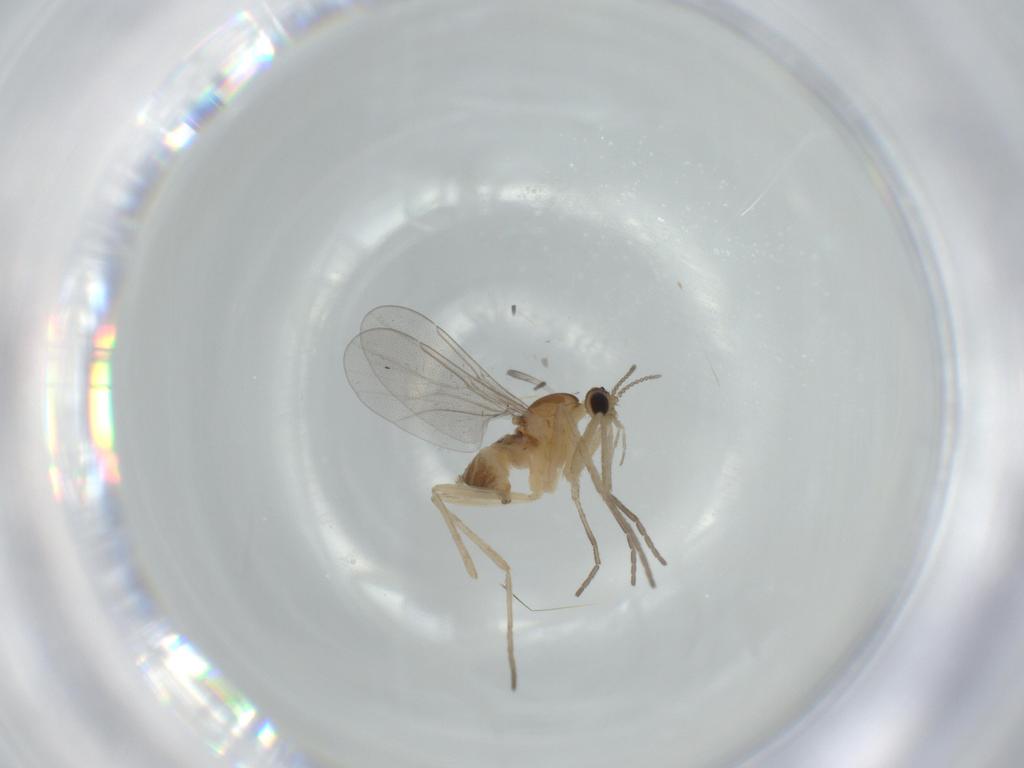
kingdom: Animalia
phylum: Arthropoda
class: Insecta
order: Diptera
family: Cecidomyiidae
